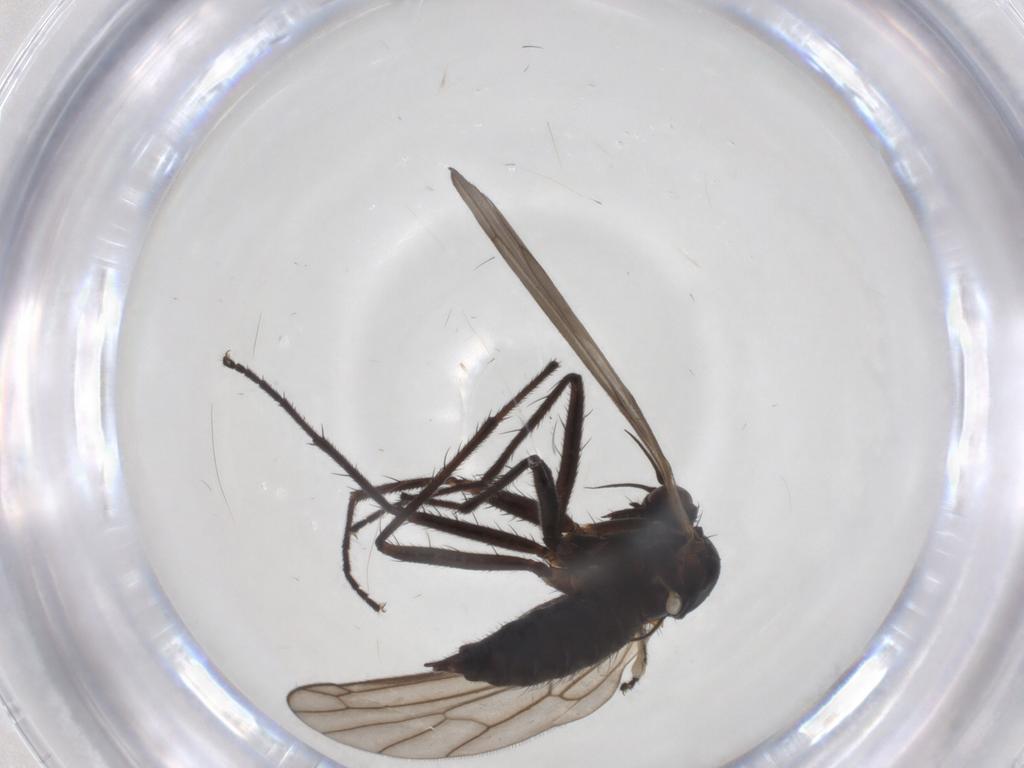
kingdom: Animalia
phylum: Arthropoda
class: Insecta
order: Diptera
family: Empididae
